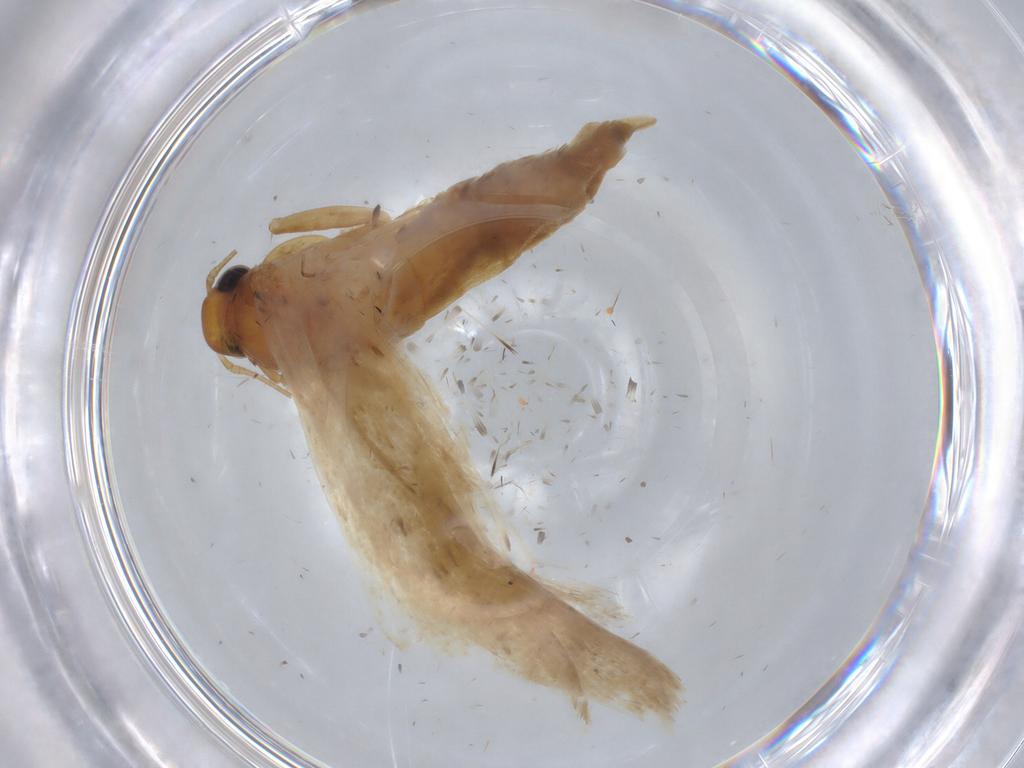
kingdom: Animalia
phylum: Arthropoda
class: Insecta
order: Lepidoptera
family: Gelechiidae
